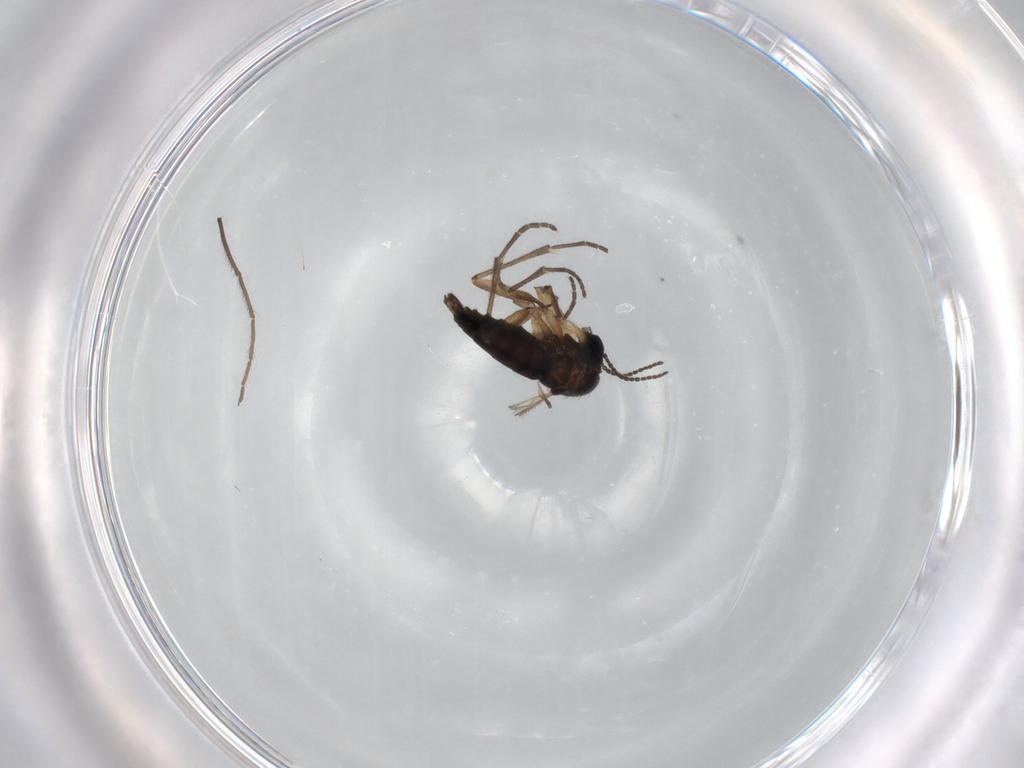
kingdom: Animalia
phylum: Arthropoda
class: Insecta
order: Diptera
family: Sciaridae
